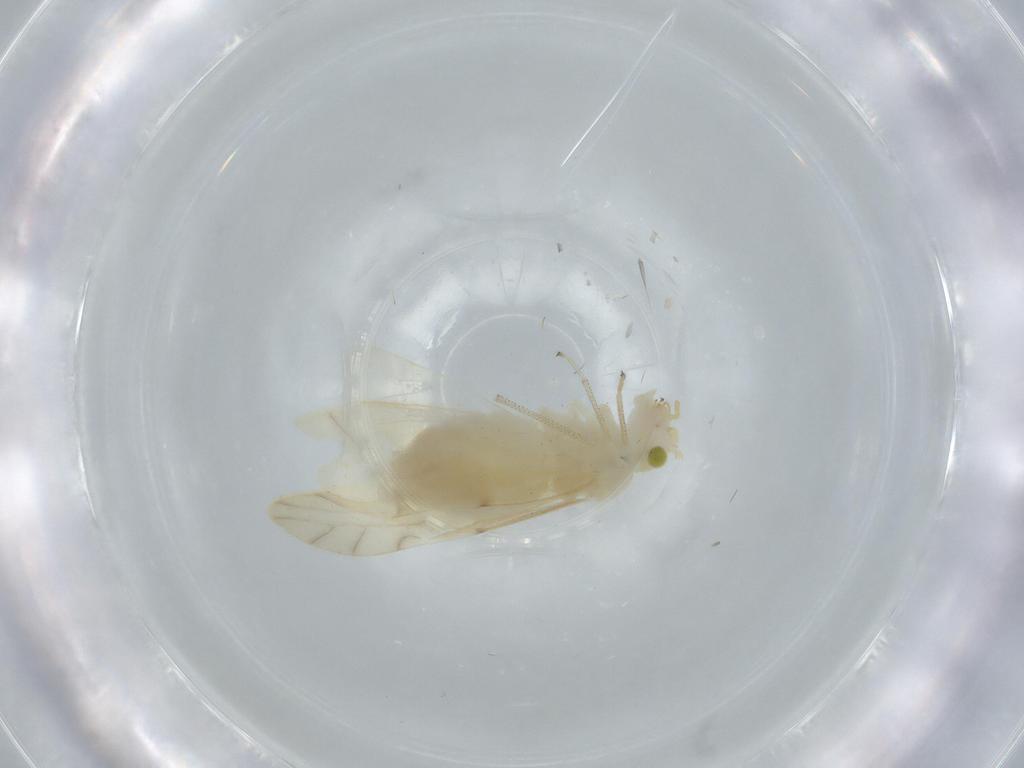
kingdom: Animalia
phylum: Arthropoda
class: Insecta
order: Psocodea
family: Caeciliusidae
